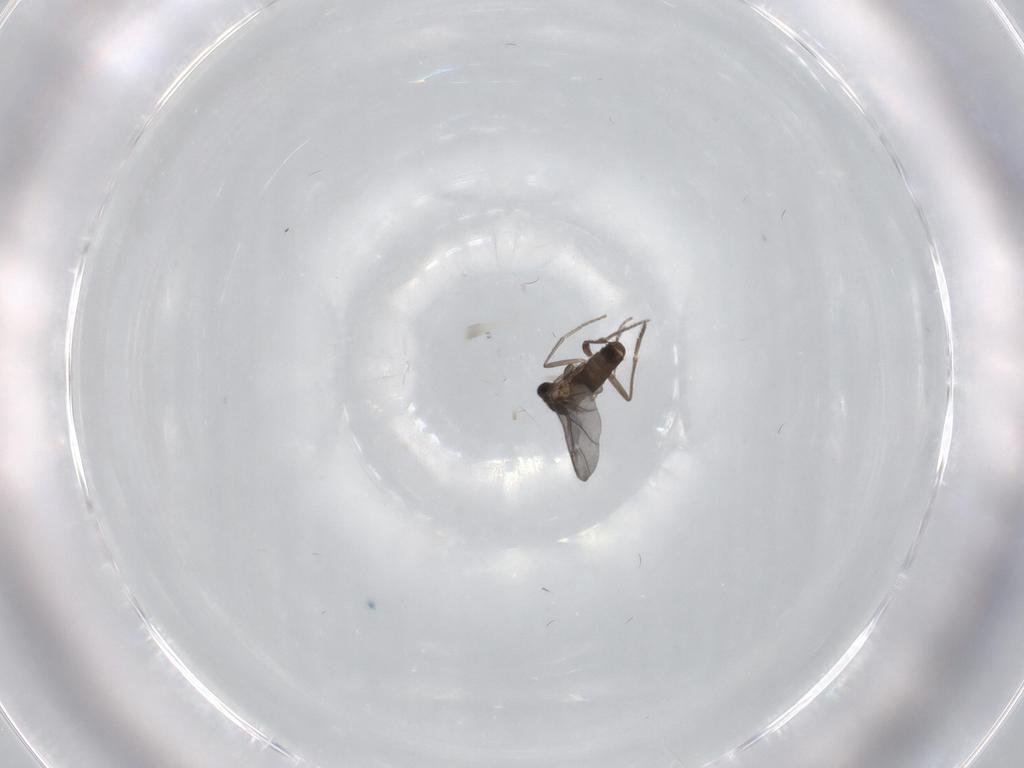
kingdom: Animalia
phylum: Arthropoda
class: Insecta
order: Diptera
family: Phoridae
